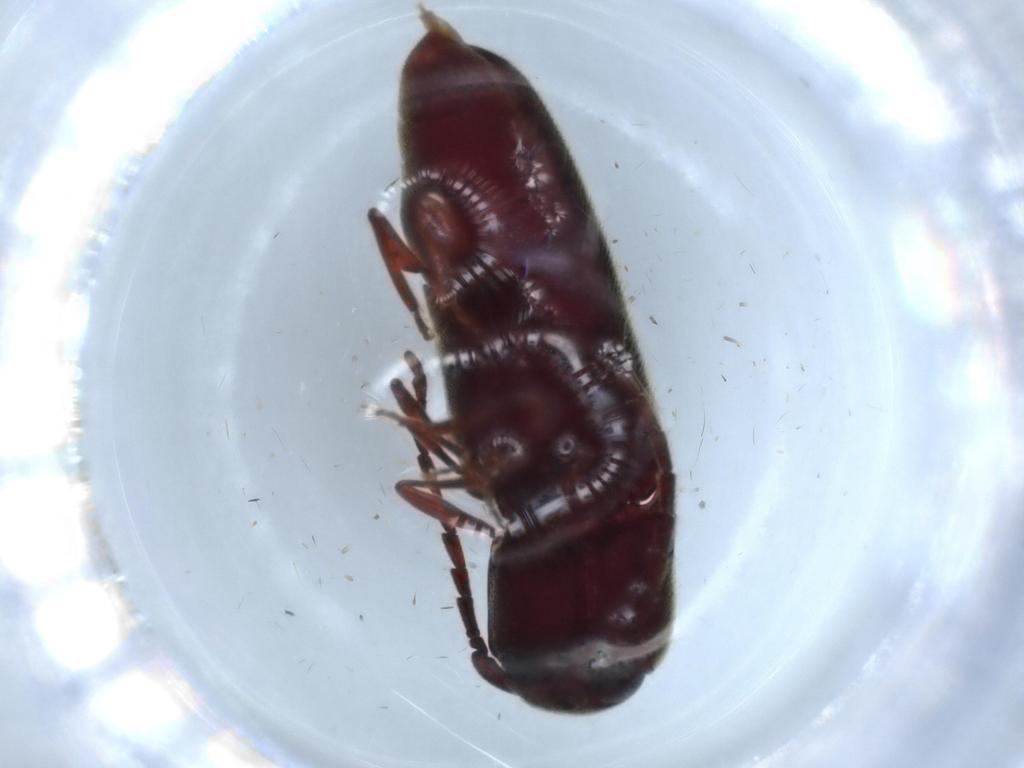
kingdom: Animalia
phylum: Arthropoda
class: Insecta
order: Coleoptera
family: Eucnemidae
